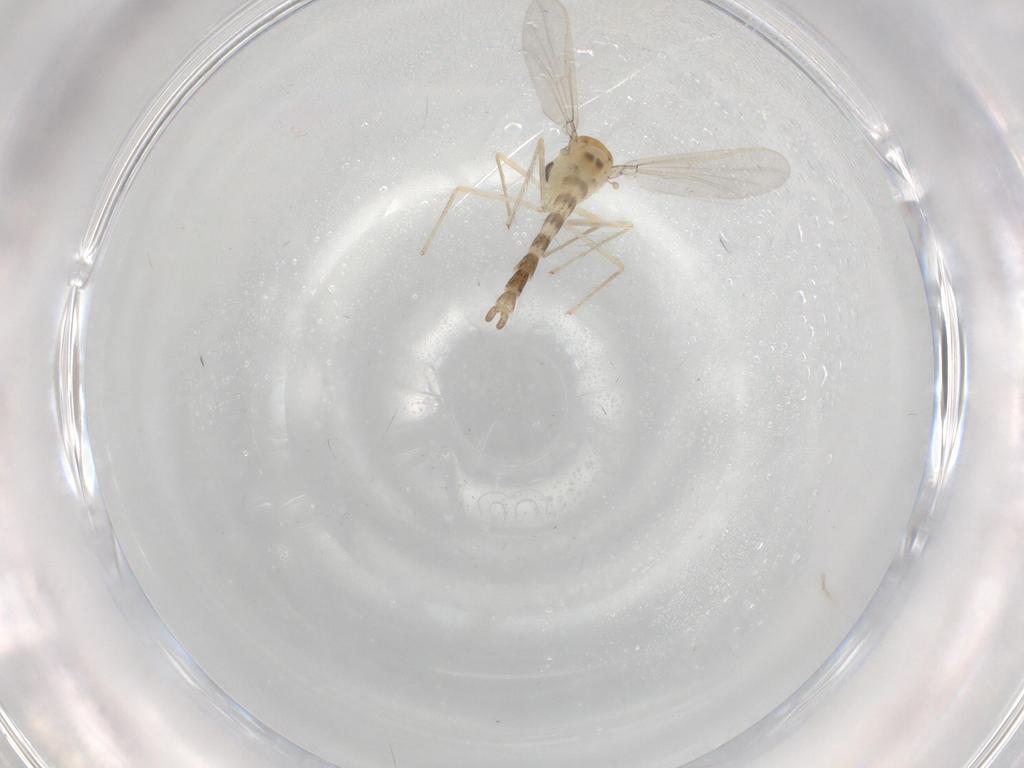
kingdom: Animalia
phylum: Arthropoda
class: Insecta
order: Diptera
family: Chironomidae
